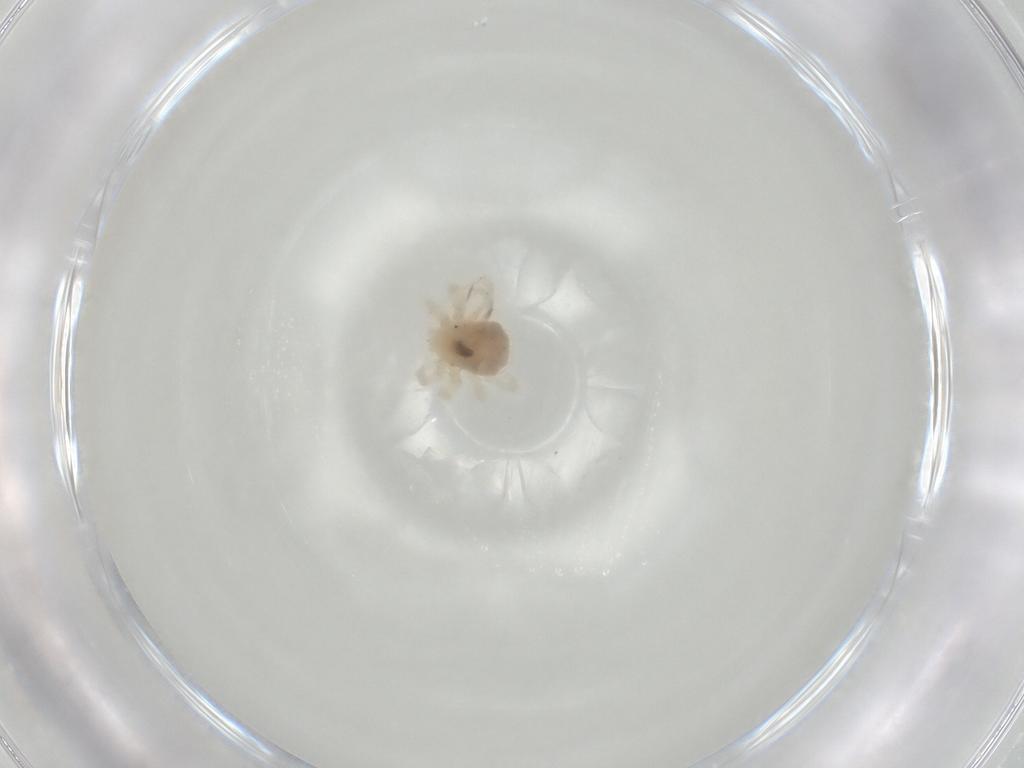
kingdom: Animalia
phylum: Arthropoda
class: Arachnida
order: Trombidiformes
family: Anystidae
